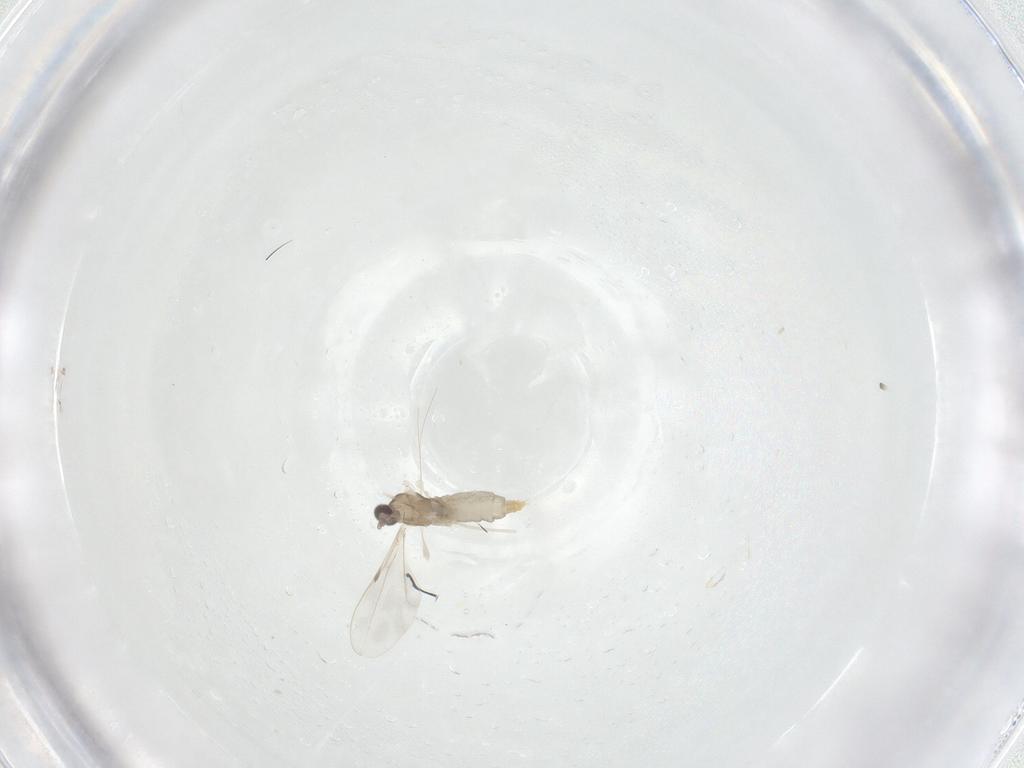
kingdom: Animalia
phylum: Arthropoda
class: Insecta
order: Diptera
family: Cecidomyiidae
